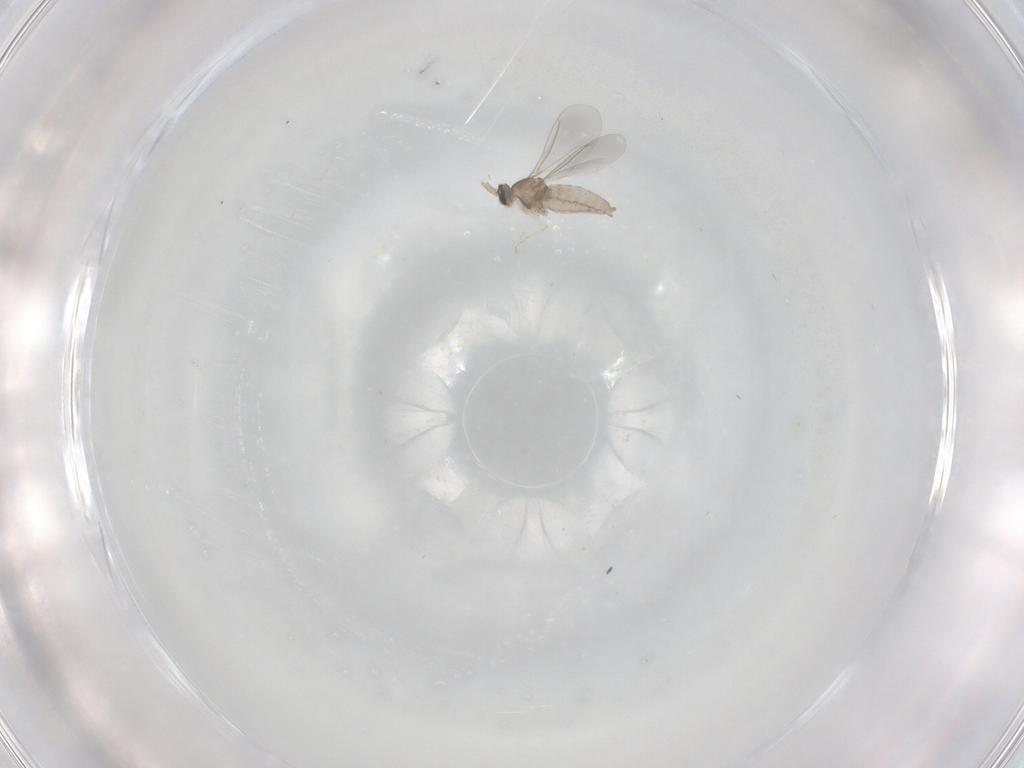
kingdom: Animalia
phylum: Arthropoda
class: Insecta
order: Diptera
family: Cecidomyiidae
